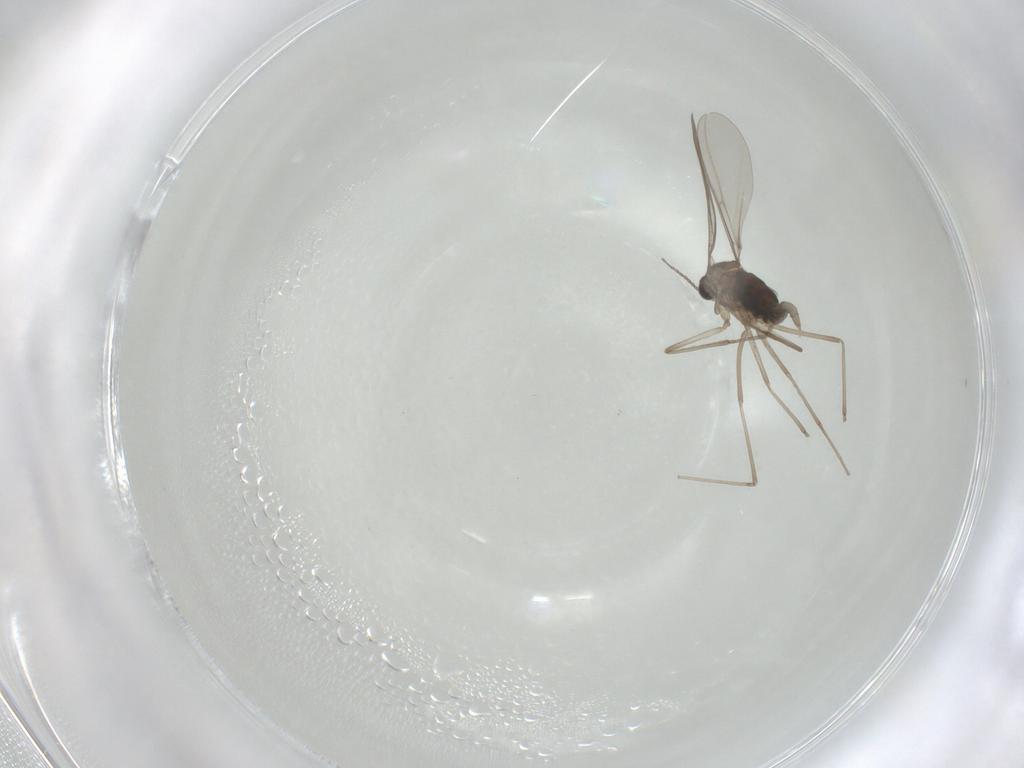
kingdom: Animalia
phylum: Arthropoda
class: Insecta
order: Diptera
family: Cecidomyiidae
